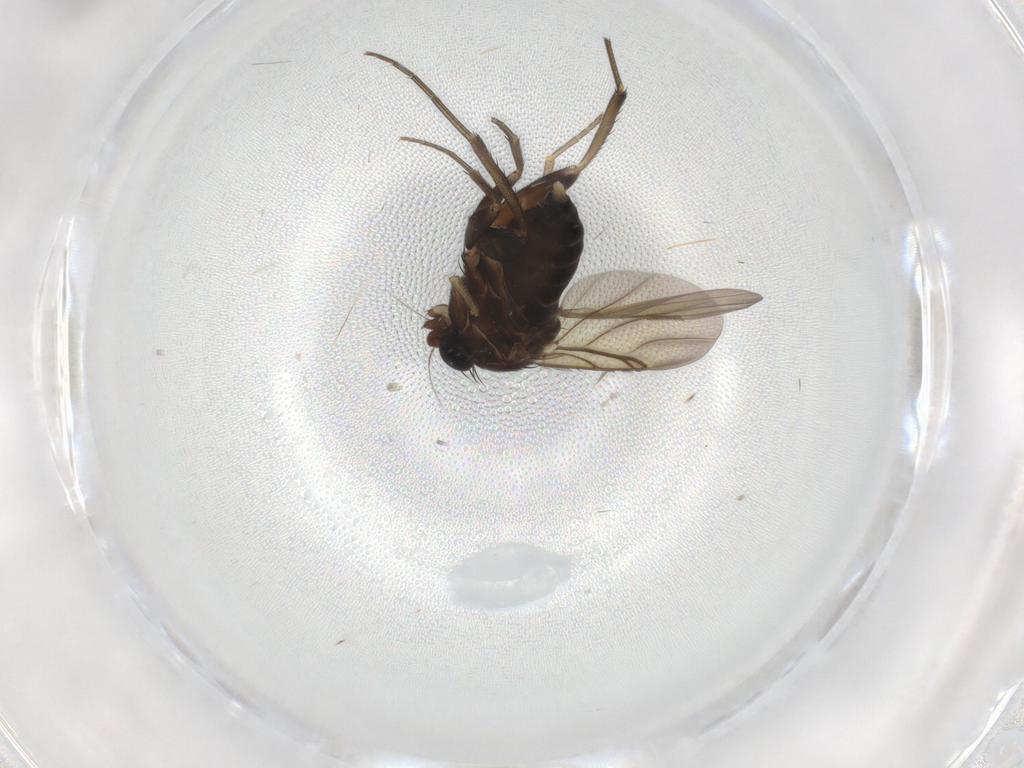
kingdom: Animalia
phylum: Arthropoda
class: Insecta
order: Diptera
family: Phoridae
